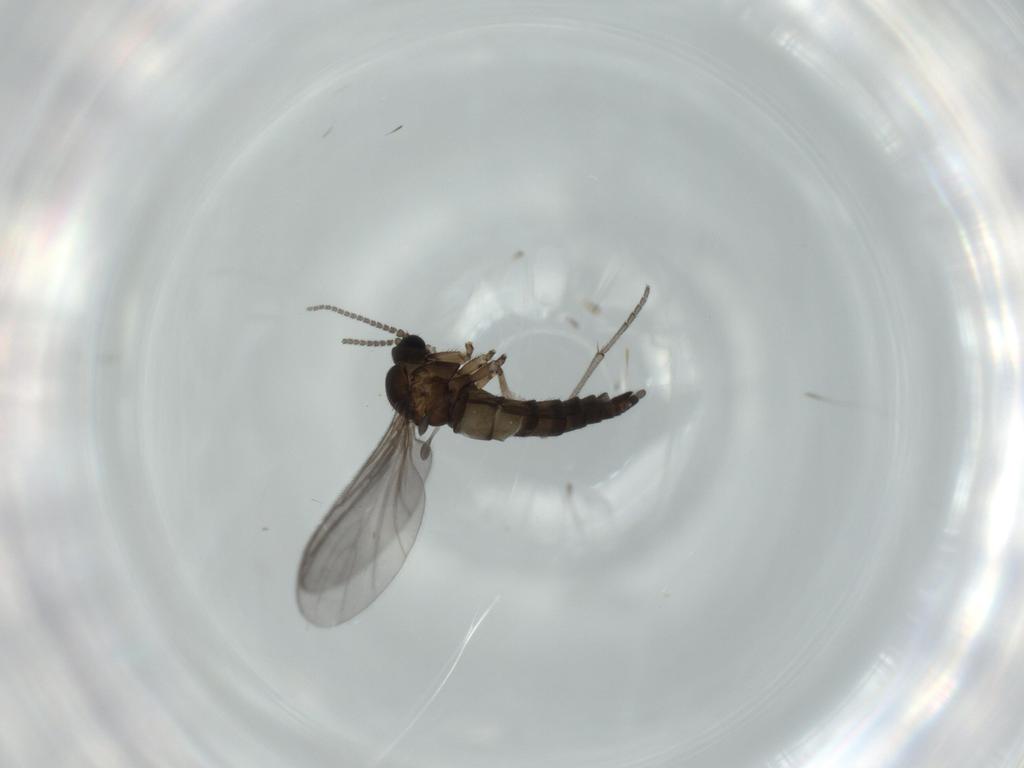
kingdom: Animalia
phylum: Arthropoda
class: Insecta
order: Diptera
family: Sciaridae
